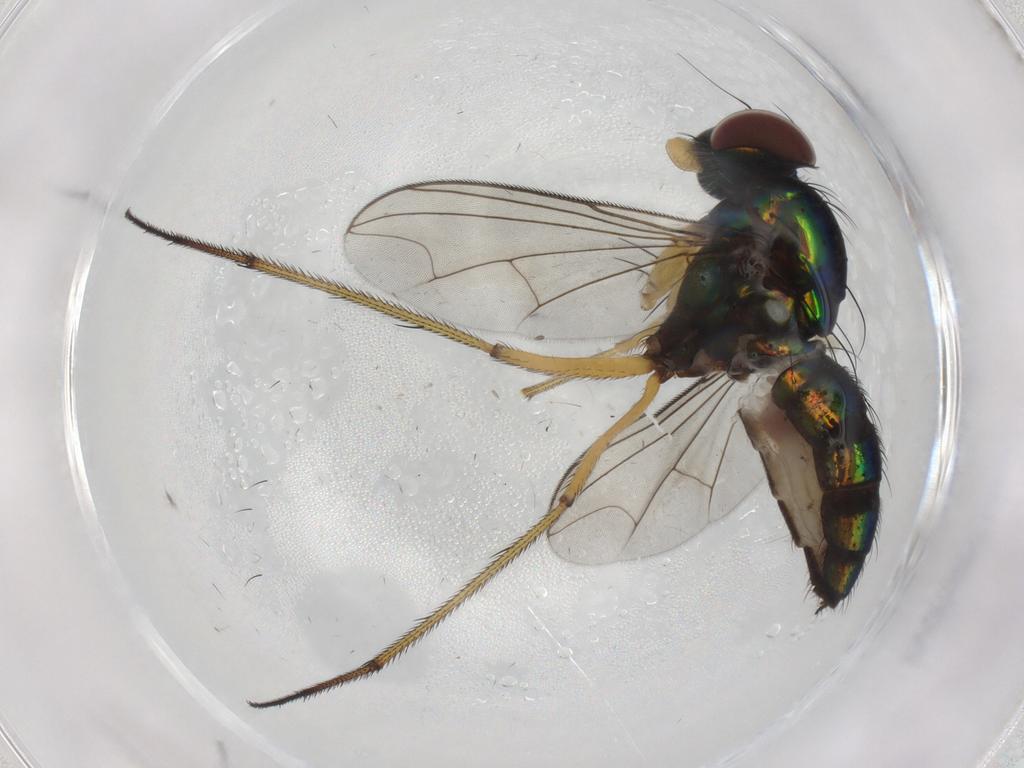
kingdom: Animalia
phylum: Arthropoda
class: Insecta
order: Diptera
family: Dolichopodidae
